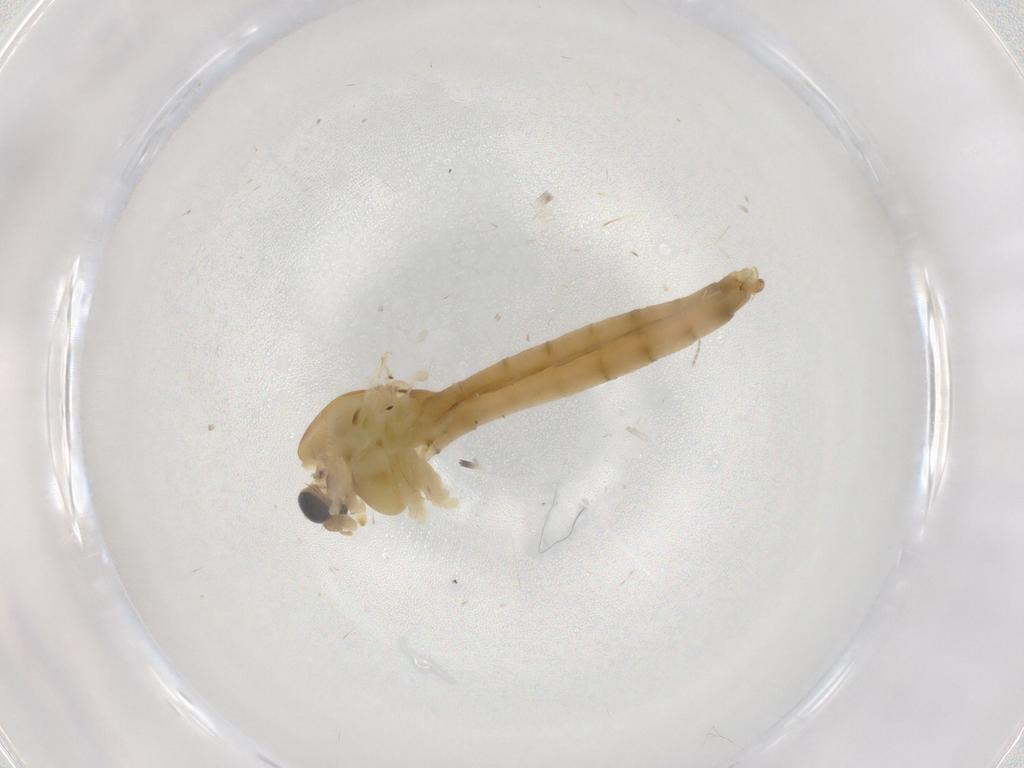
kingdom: Animalia
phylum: Arthropoda
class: Insecta
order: Diptera
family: Chironomidae
